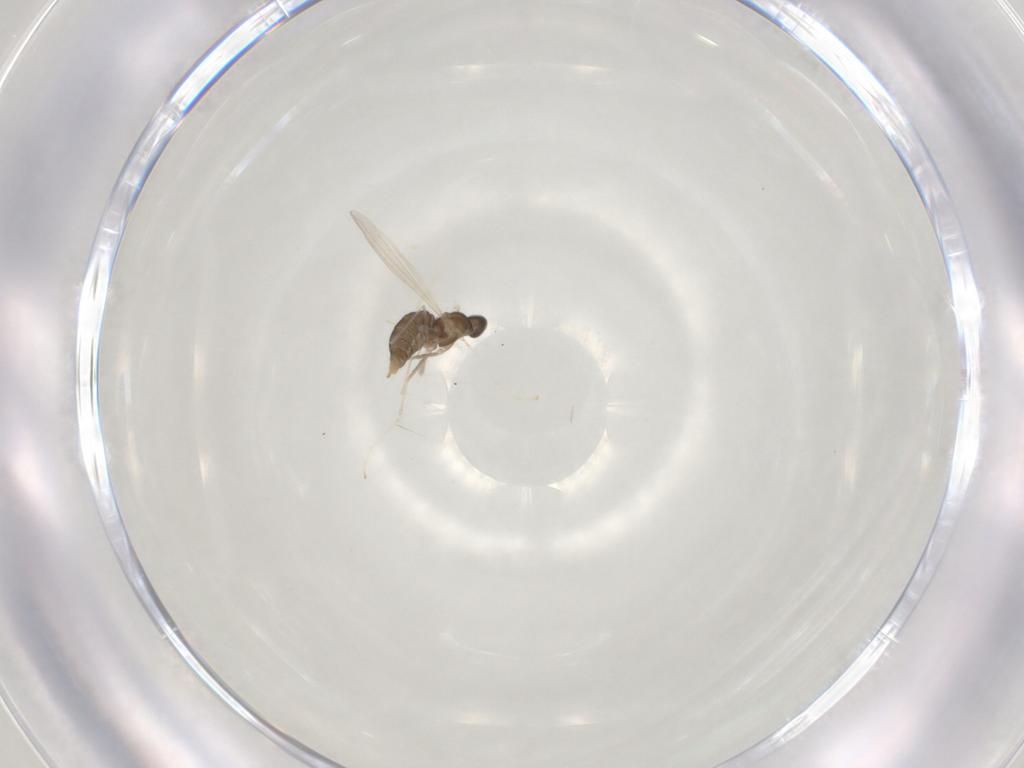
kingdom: Animalia
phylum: Arthropoda
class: Insecta
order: Diptera
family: Cecidomyiidae
